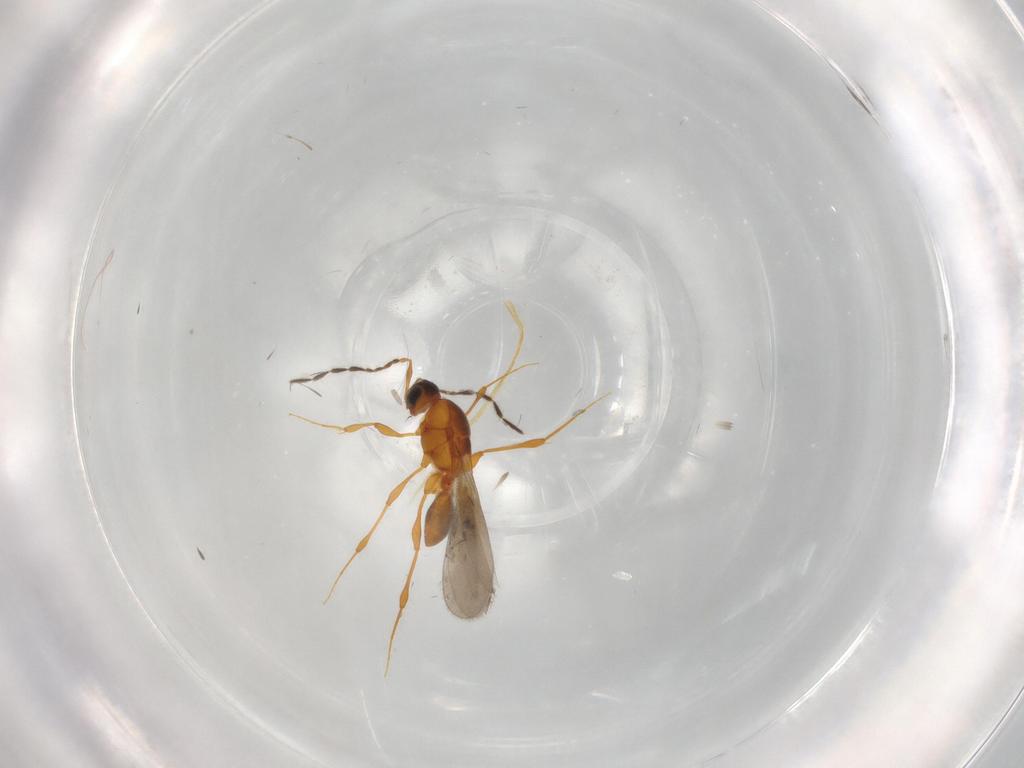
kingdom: Animalia
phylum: Arthropoda
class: Insecta
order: Hymenoptera
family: Platygastridae
